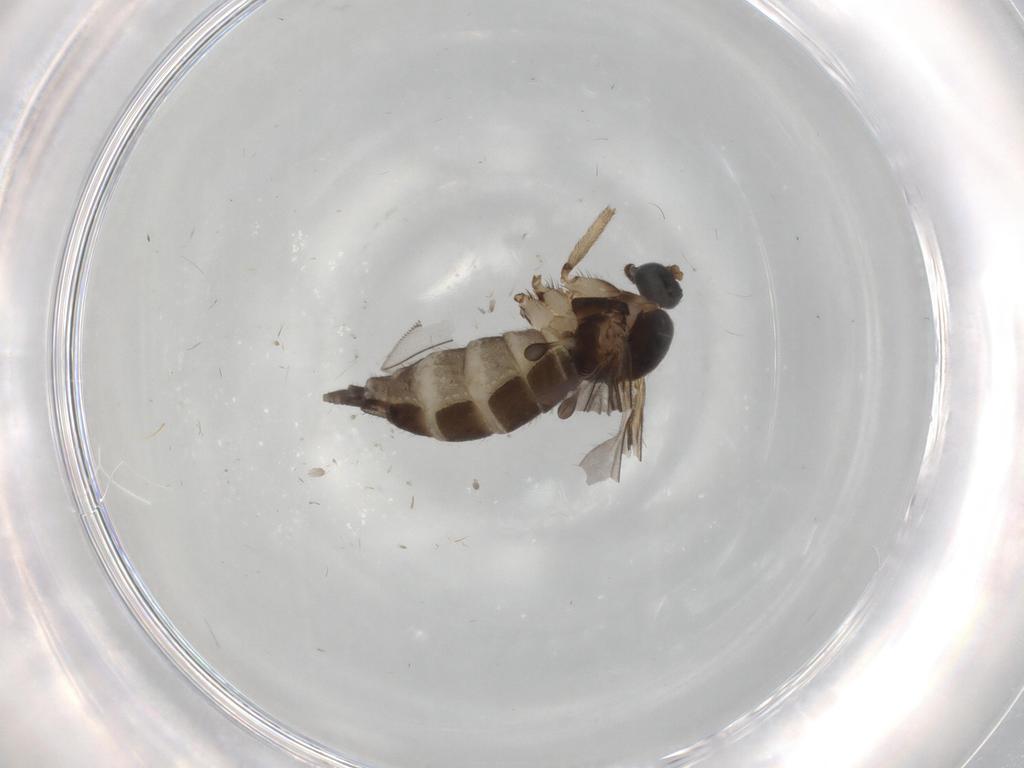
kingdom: Animalia
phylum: Arthropoda
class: Insecta
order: Diptera
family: Sciaridae
